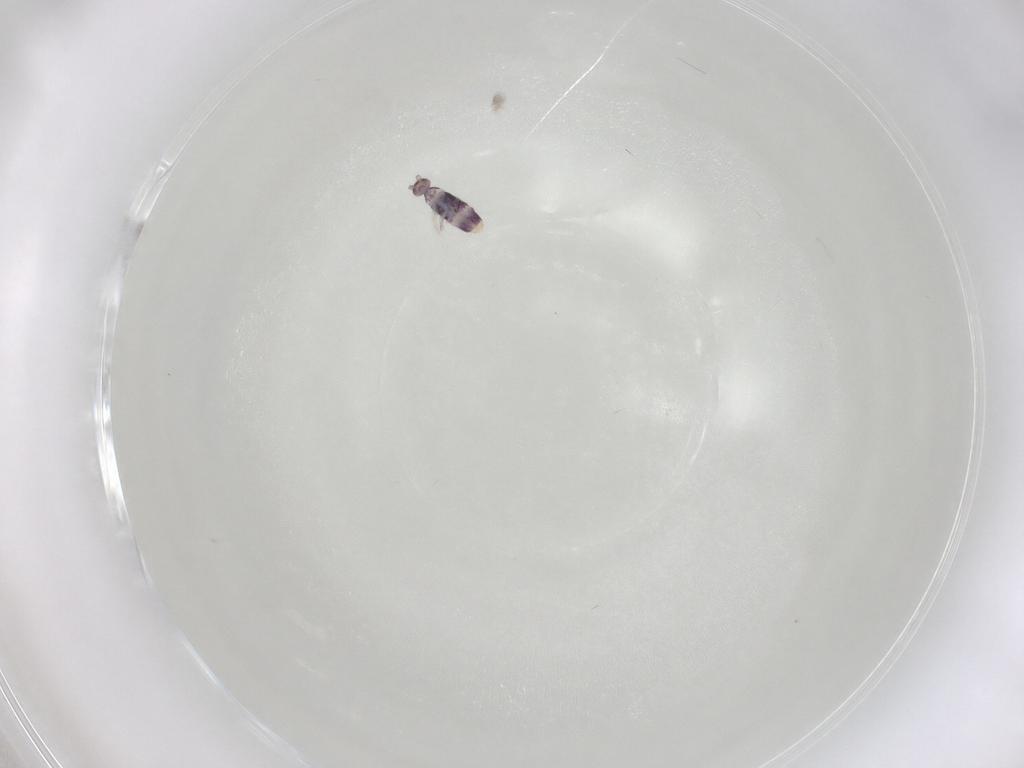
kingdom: Animalia
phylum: Arthropoda
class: Collembola
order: Entomobryomorpha
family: Entomobryidae
